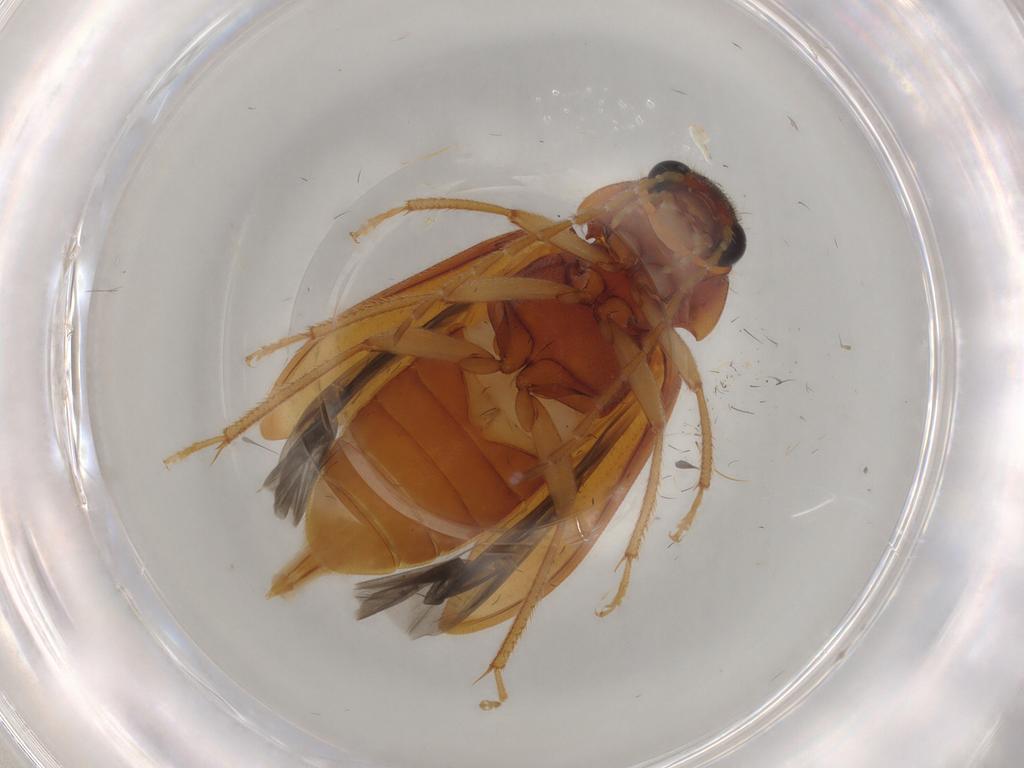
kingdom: Animalia
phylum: Arthropoda
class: Insecta
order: Coleoptera
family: Ptilodactylidae
